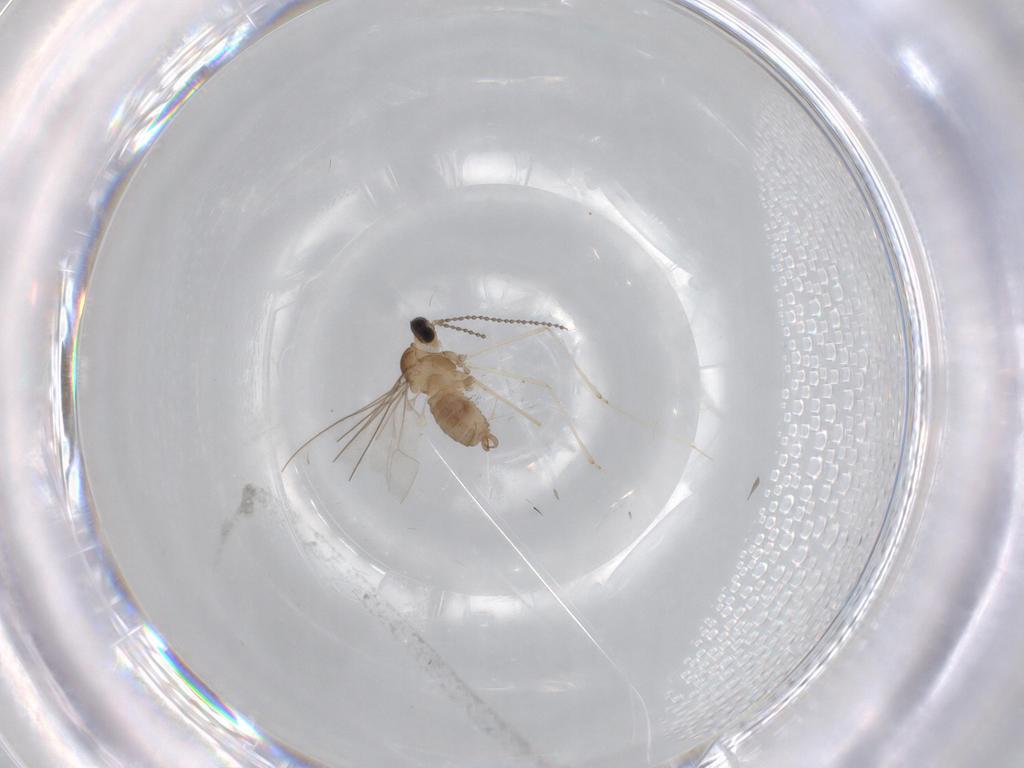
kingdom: Animalia
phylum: Arthropoda
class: Insecta
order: Diptera
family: Cecidomyiidae
